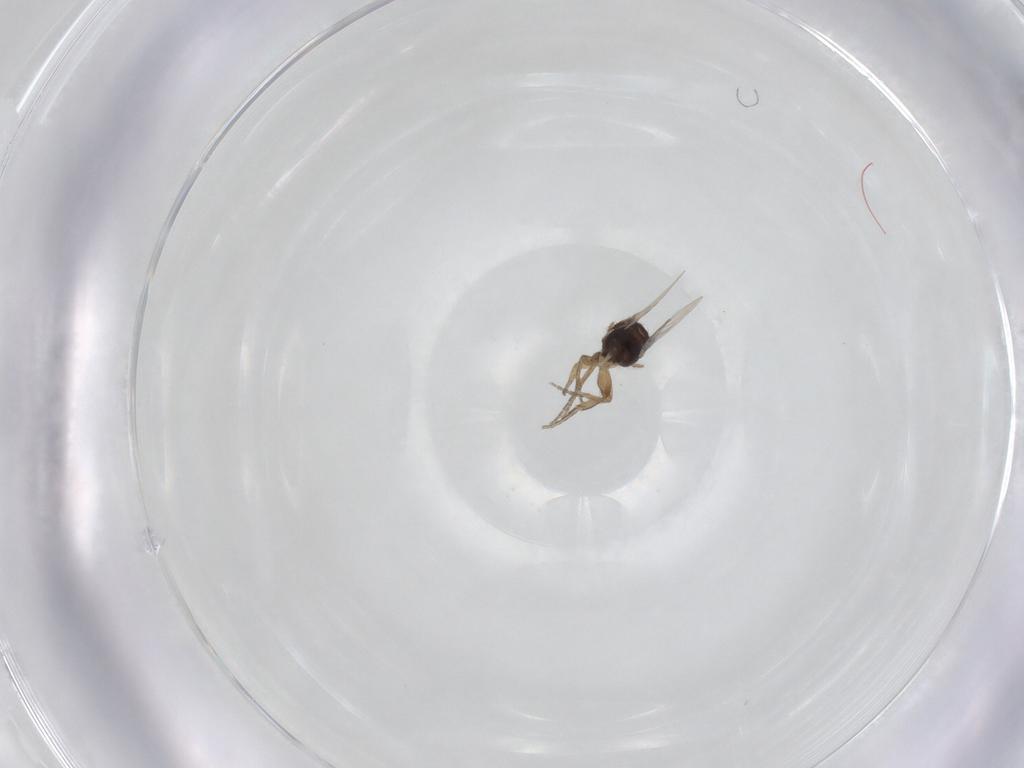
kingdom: Animalia
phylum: Arthropoda
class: Insecta
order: Diptera
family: Phoridae
